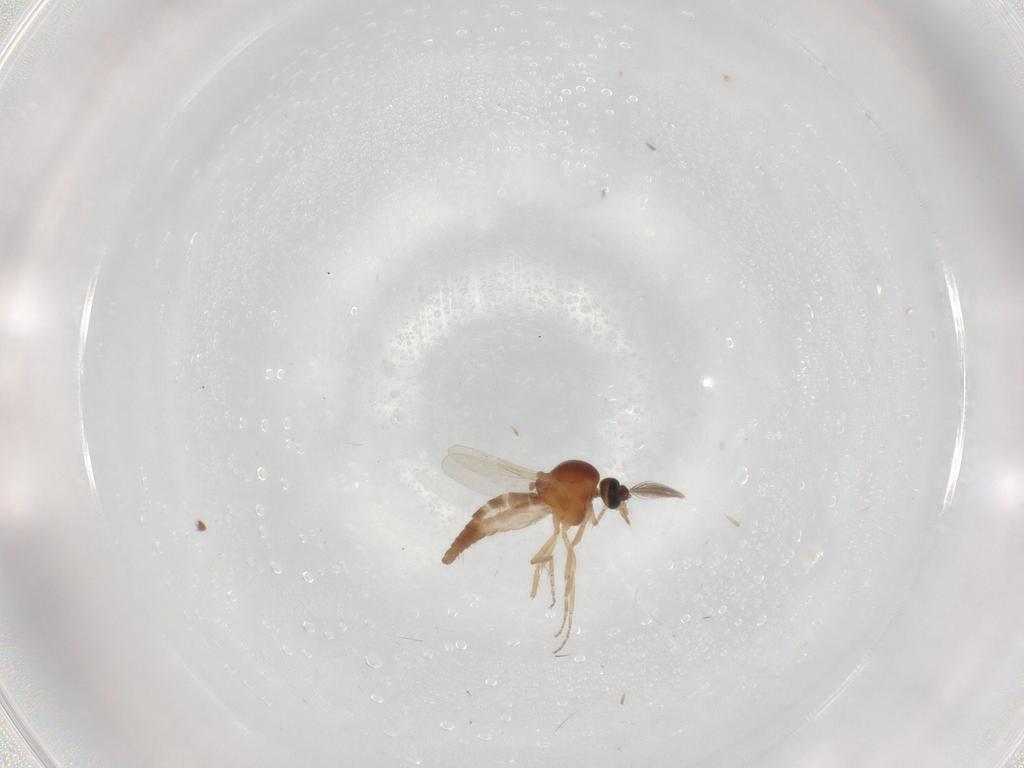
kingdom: Animalia
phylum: Arthropoda
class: Insecta
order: Diptera
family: Ceratopogonidae
